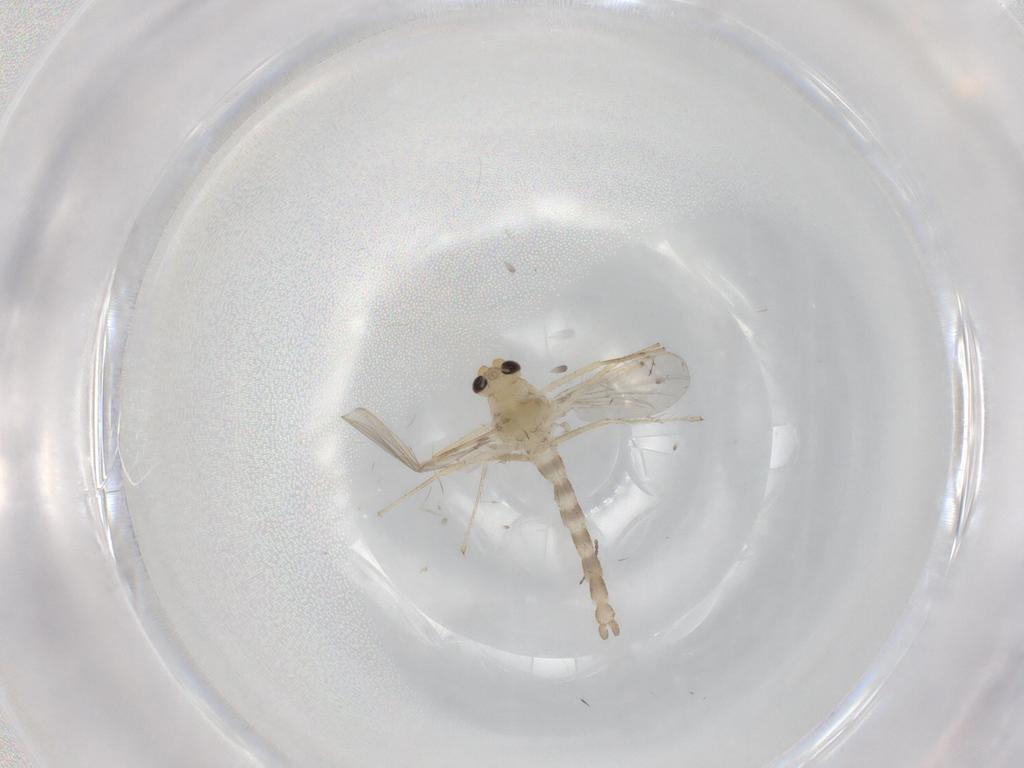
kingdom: Animalia
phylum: Arthropoda
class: Insecta
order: Diptera
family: Chironomidae
